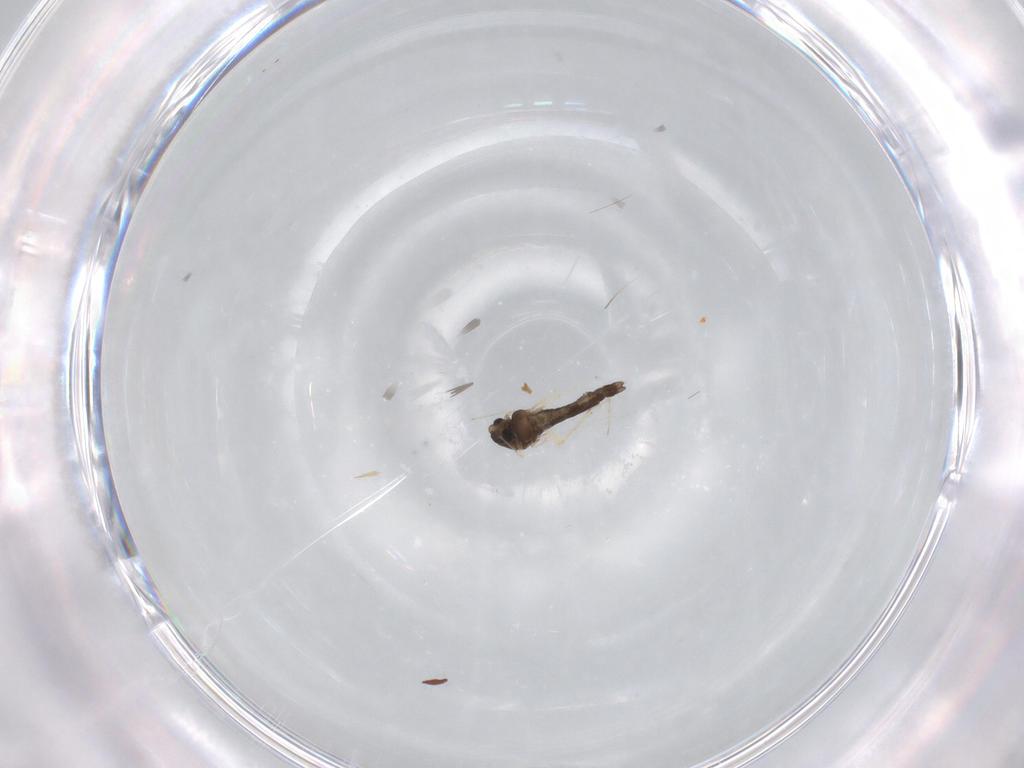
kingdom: Animalia
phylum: Arthropoda
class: Insecta
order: Diptera
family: Chironomidae
